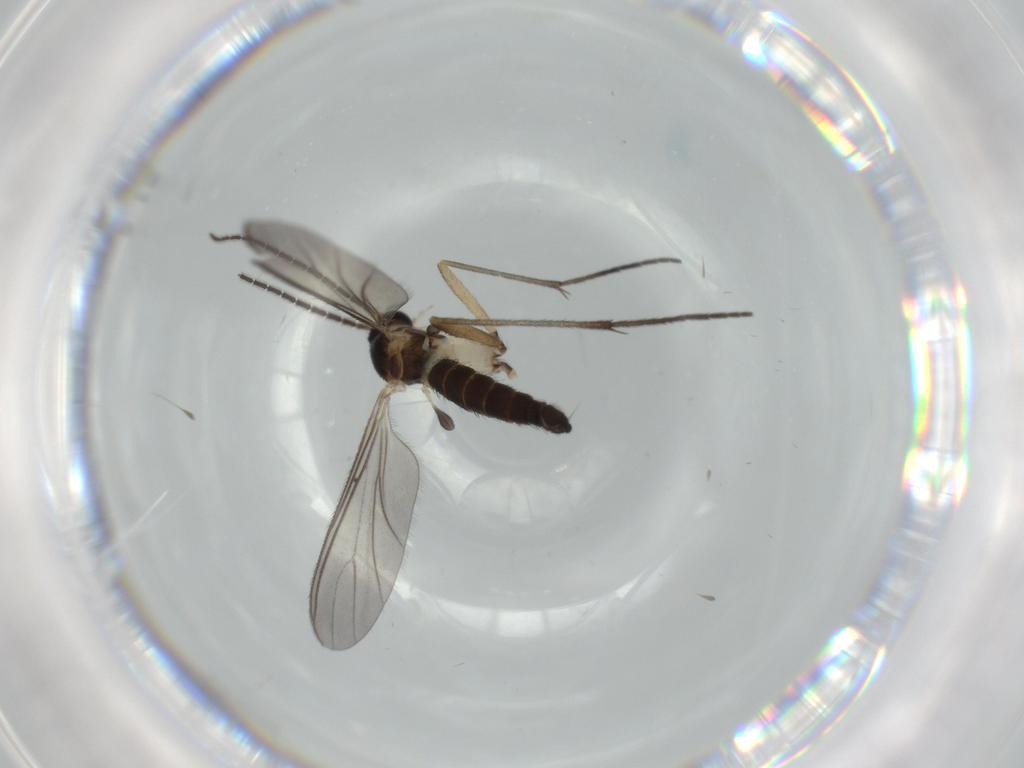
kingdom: Animalia
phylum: Arthropoda
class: Insecta
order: Diptera
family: Sciaridae
